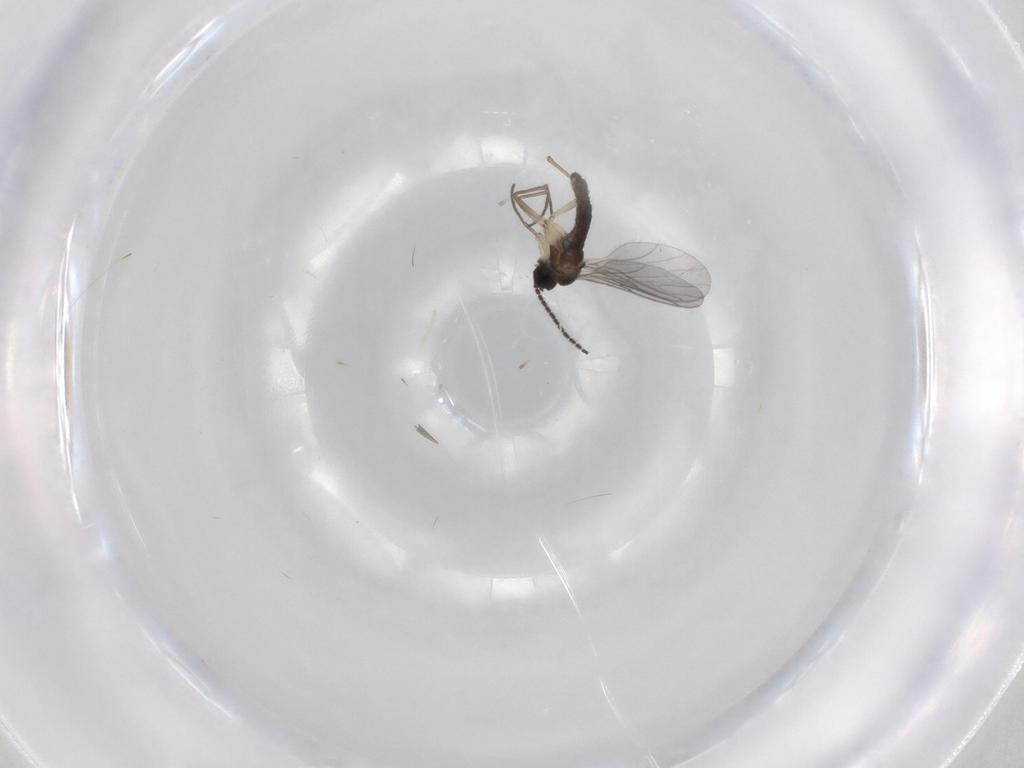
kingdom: Animalia
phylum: Arthropoda
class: Insecta
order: Diptera
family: Sciaridae
